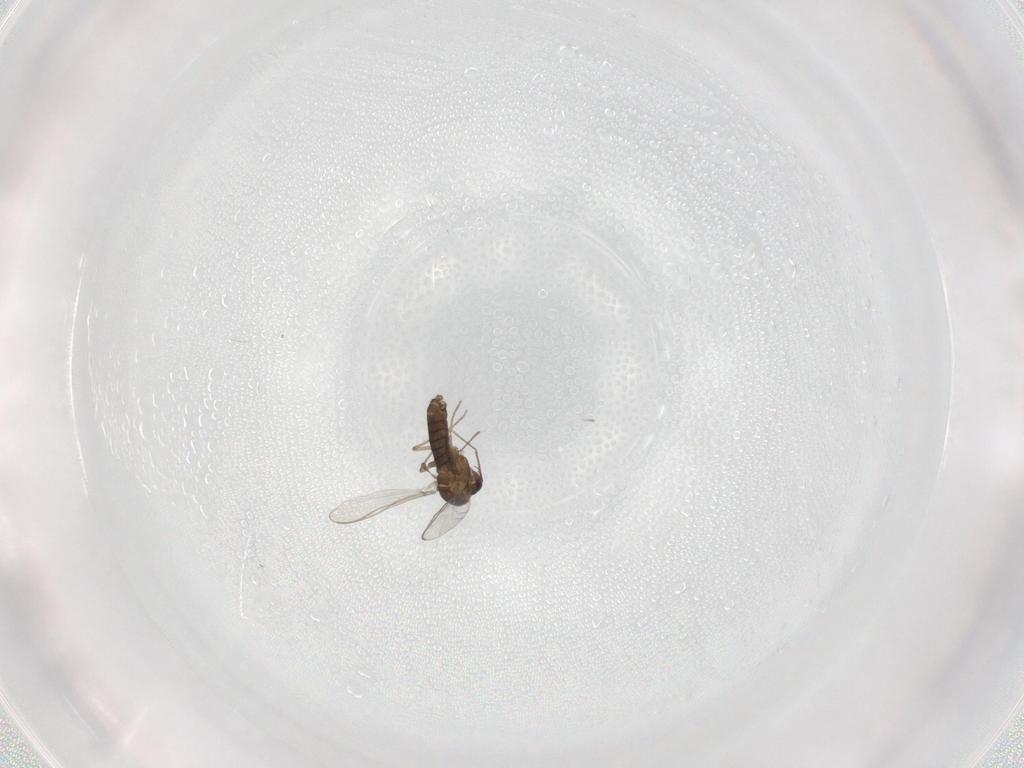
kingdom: Animalia
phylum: Arthropoda
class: Insecta
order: Diptera
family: Chironomidae
